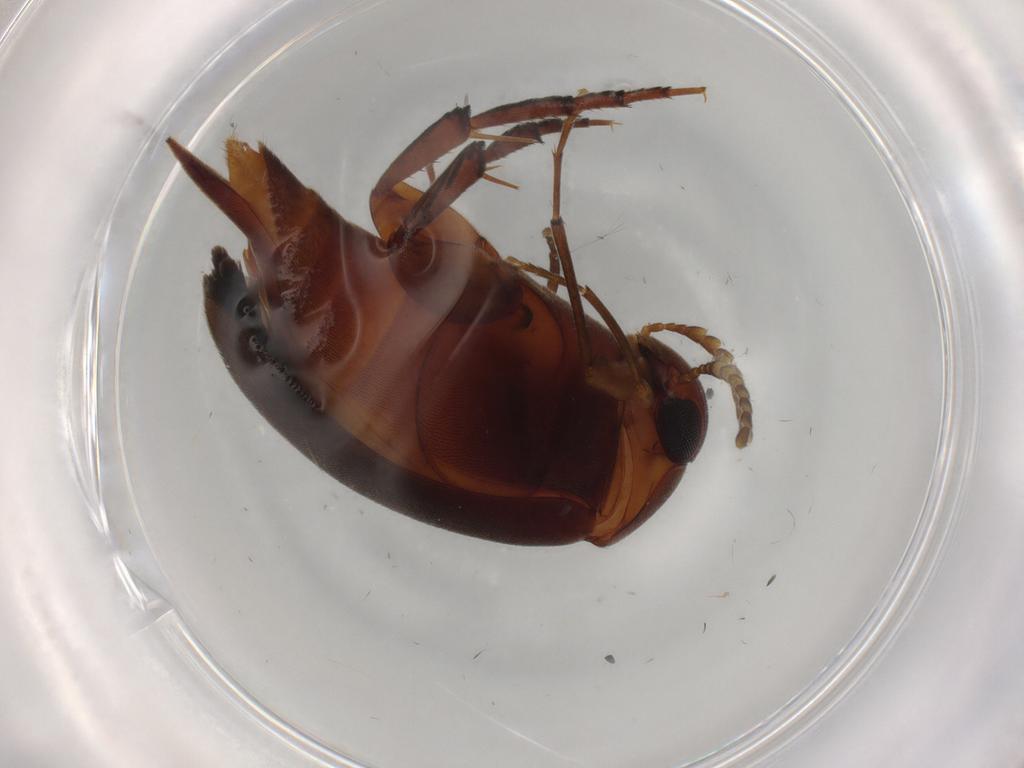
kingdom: Animalia
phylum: Arthropoda
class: Insecta
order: Coleoptera
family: Mordellidae
